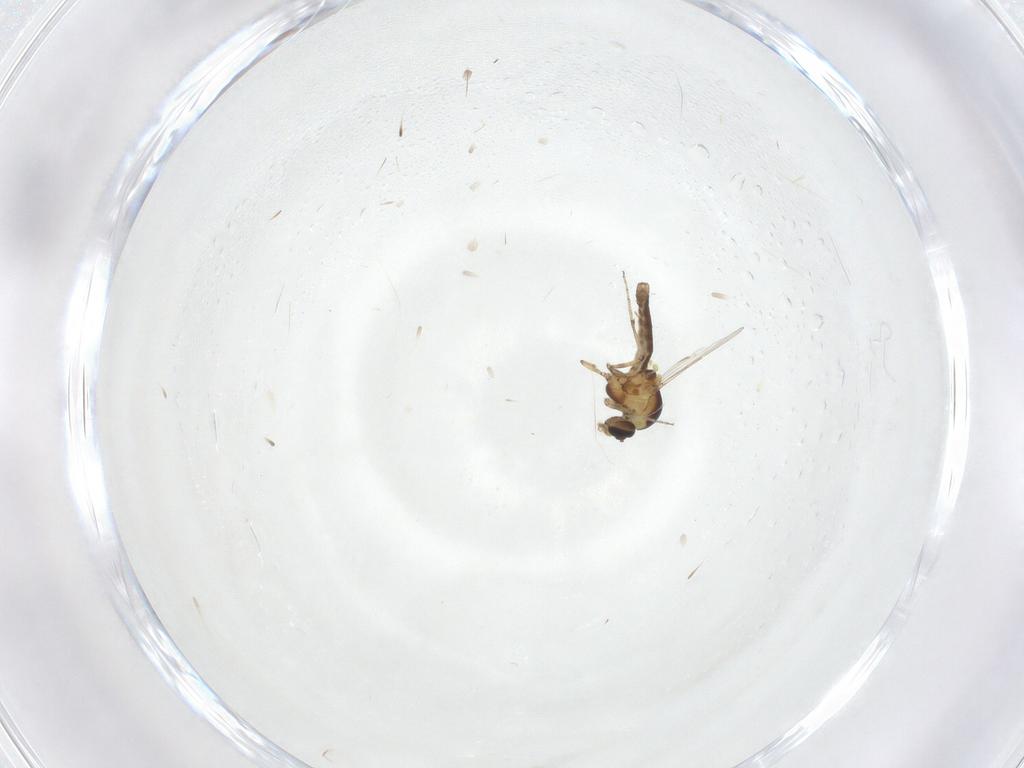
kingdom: Animalia
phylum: Arthropoda
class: Insecta
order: Diptera
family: Ceratopogonidae
